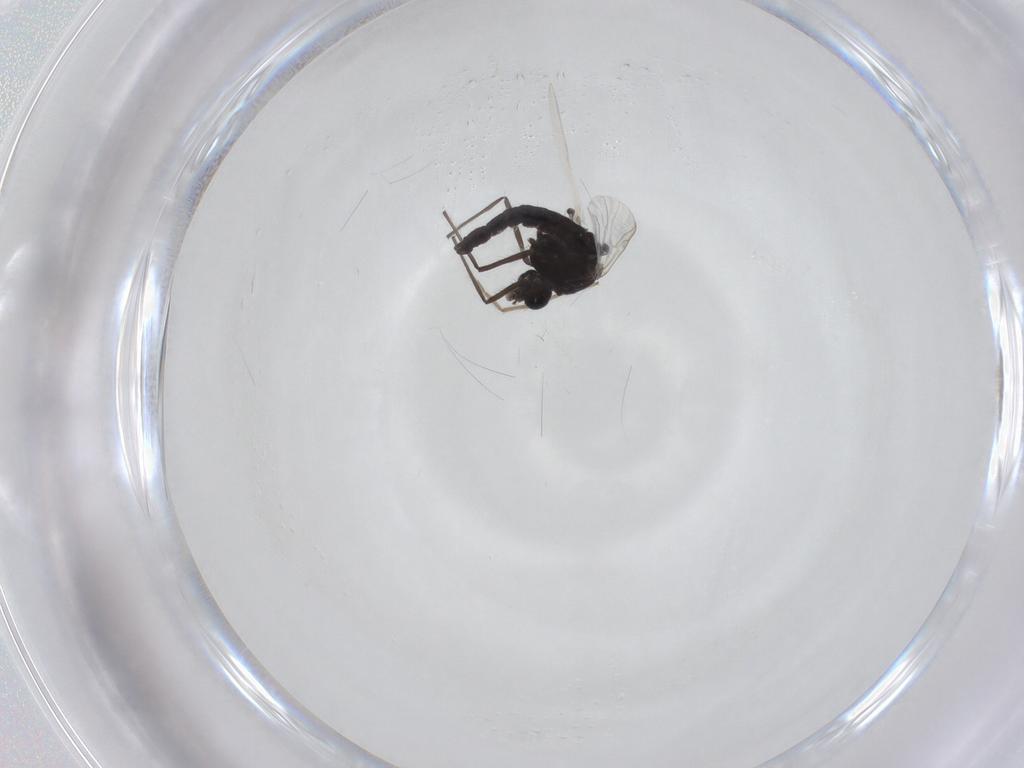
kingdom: Animalia
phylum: Arthropoda
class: Insecta
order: Diptera
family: Chironomidae
